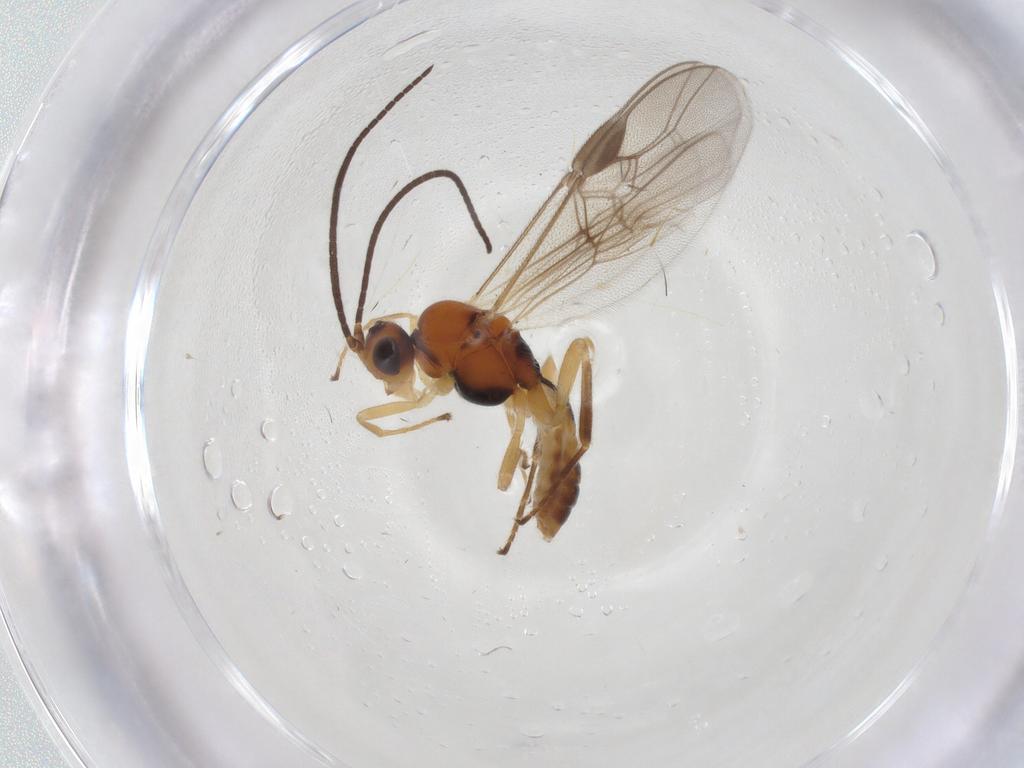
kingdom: Animalia
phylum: Arthropoda
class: Insecta
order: Hymenoptera
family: Braconidae
